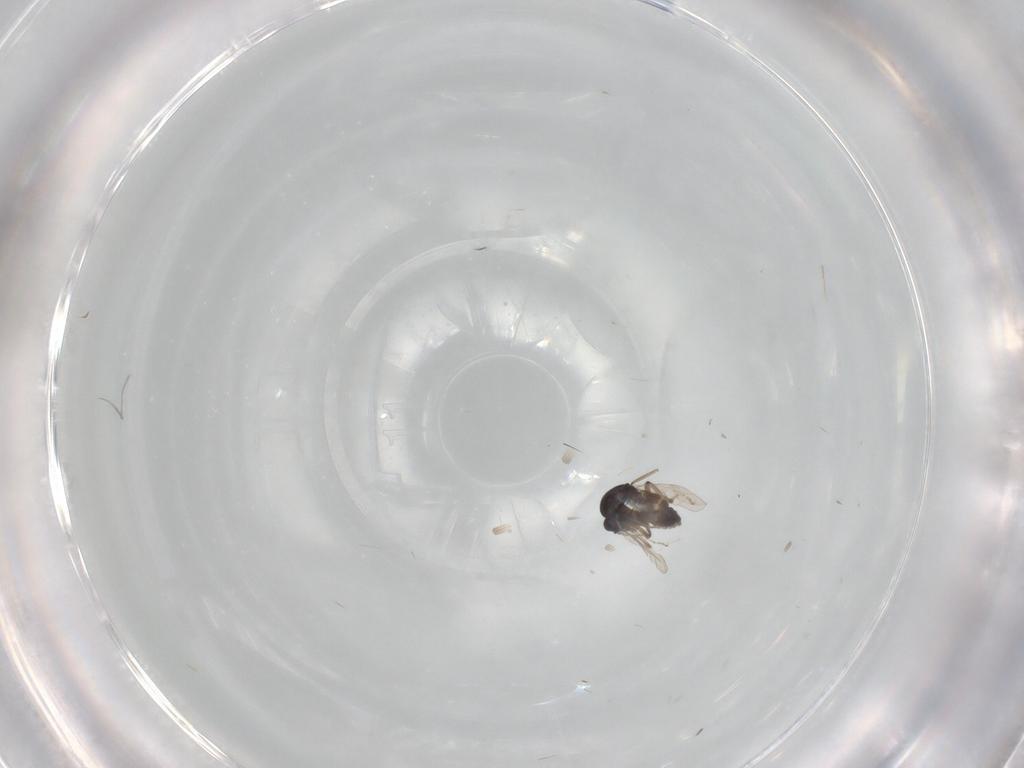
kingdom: Animalia
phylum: Arthropoda
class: Insecta
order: Diptera
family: Ceratopogonidae
